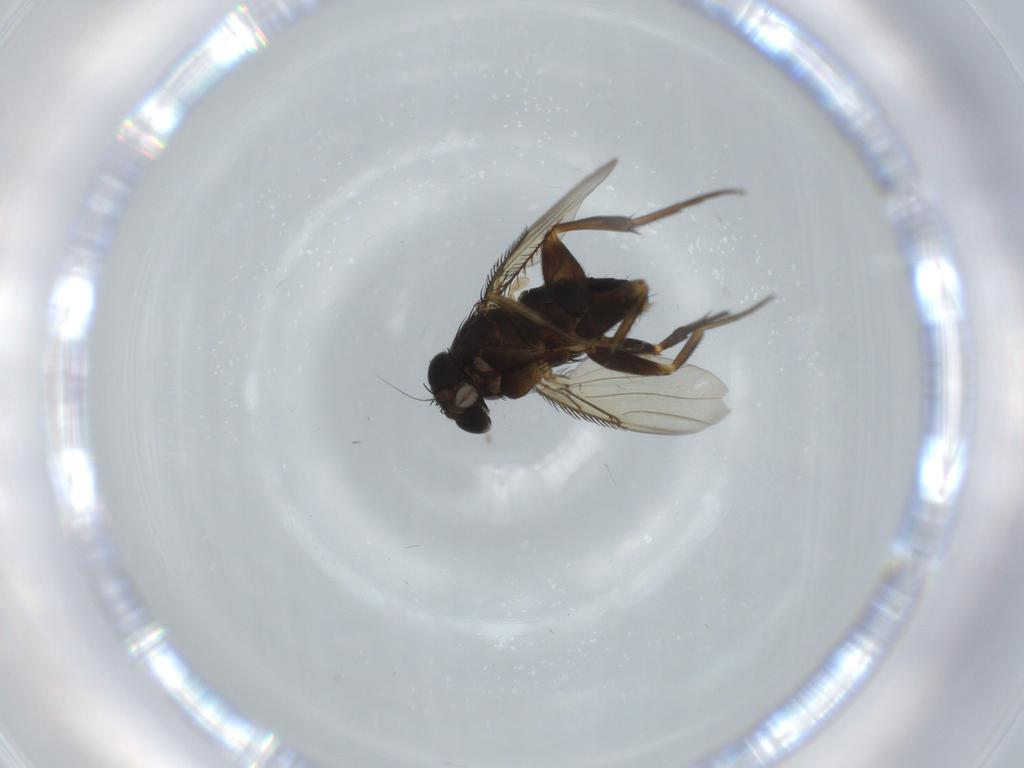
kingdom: Animalia
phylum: Arthropoda
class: Insecta
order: Diptera
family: Phoridae
